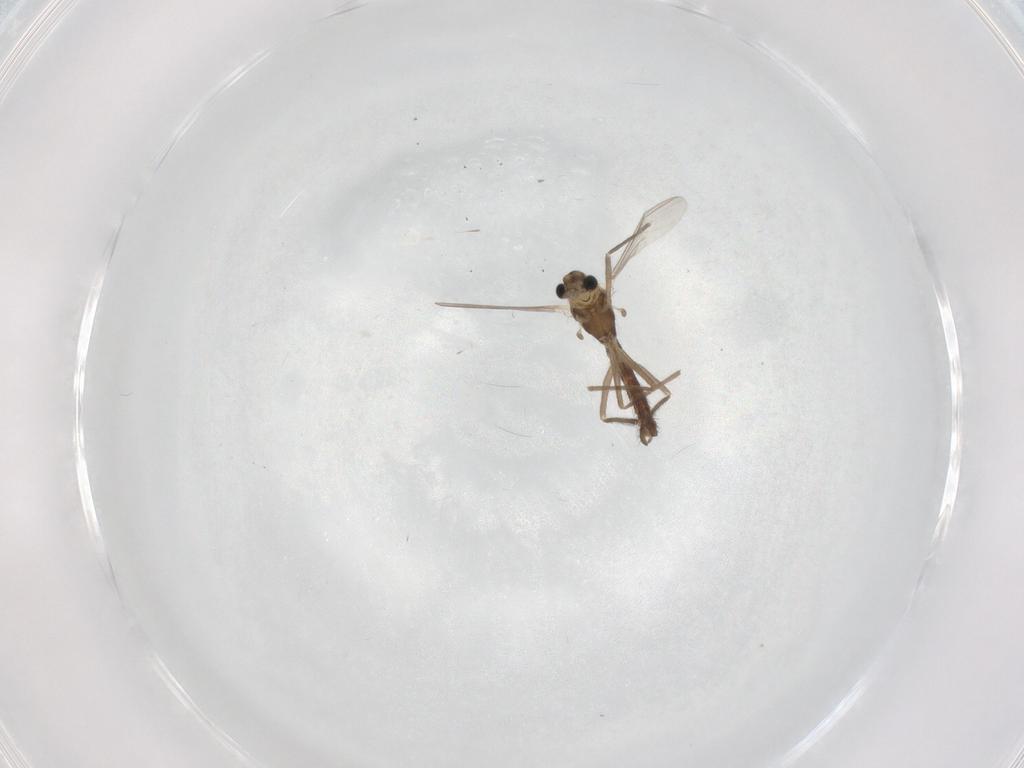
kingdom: Animalia
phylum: Arthropoda
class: Insecta
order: Diptera
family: Chironomidae
